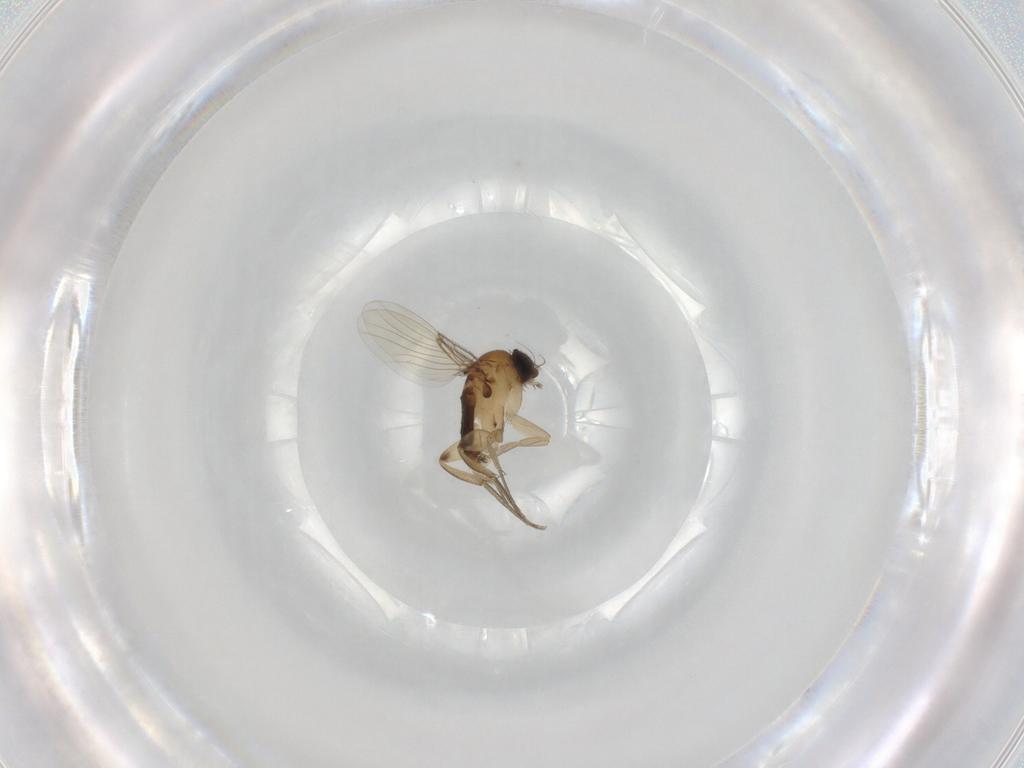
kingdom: Animalia
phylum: Arthropoda
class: Insecta
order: Diptera
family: Phoridae
